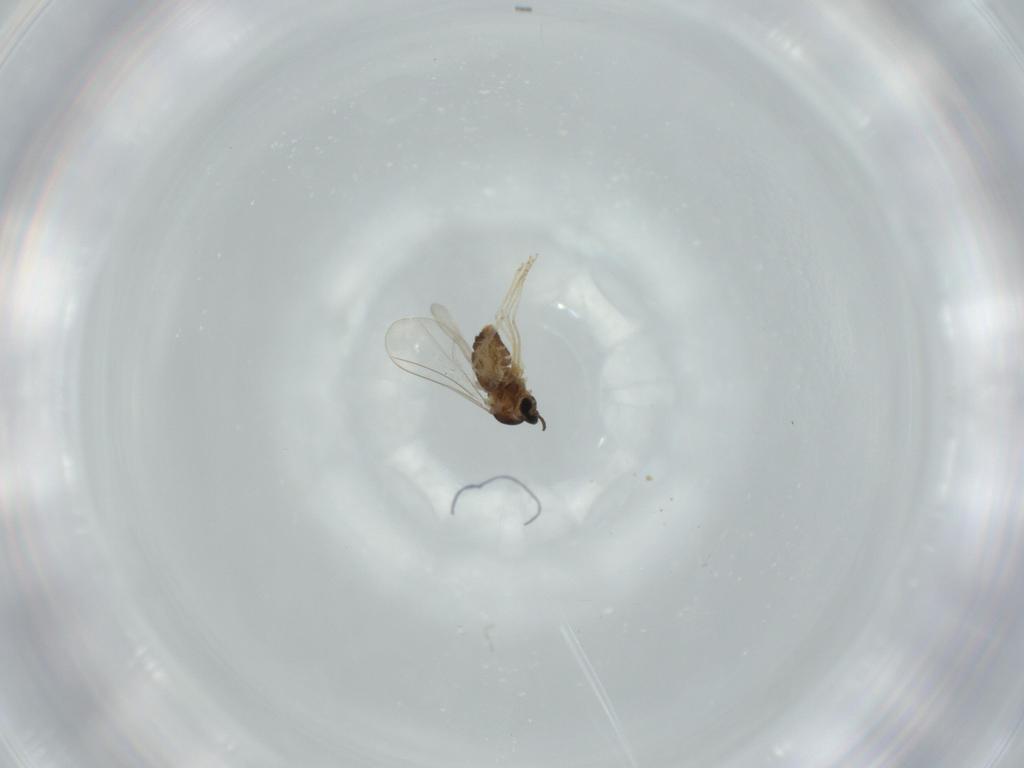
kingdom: Animalia
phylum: Arthropoda
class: Insecta
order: Diptera
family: Cecidomyiidae
